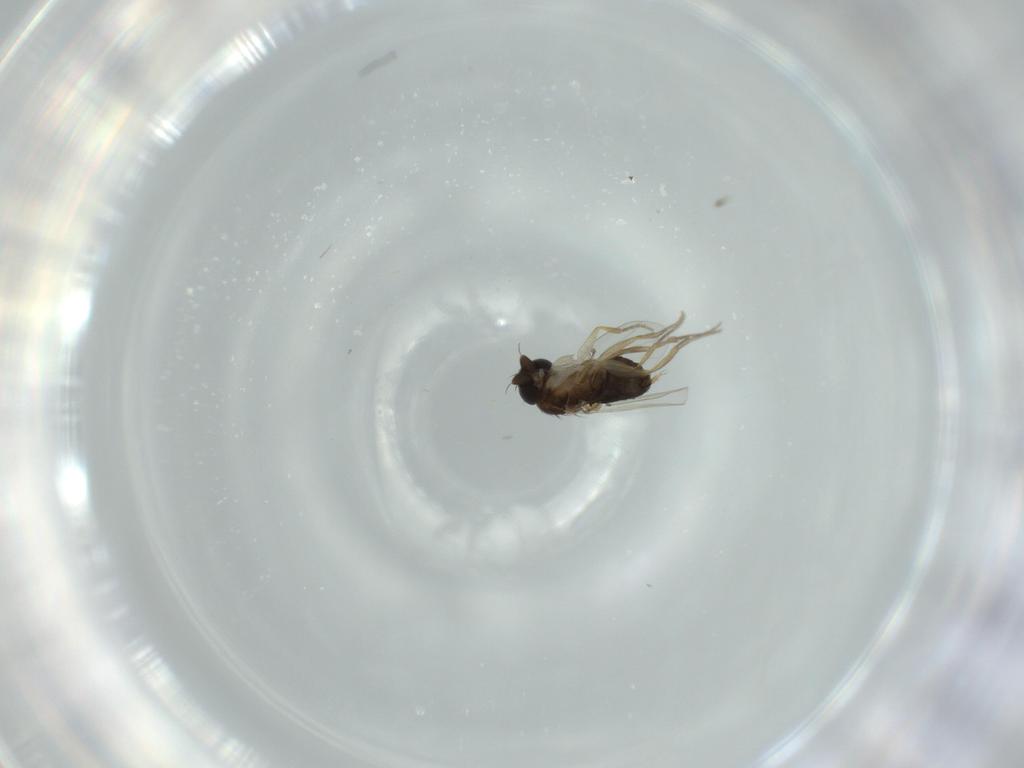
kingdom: Animalia
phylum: Arthropoda
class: Insecta
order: Diptera
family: Phoridae
